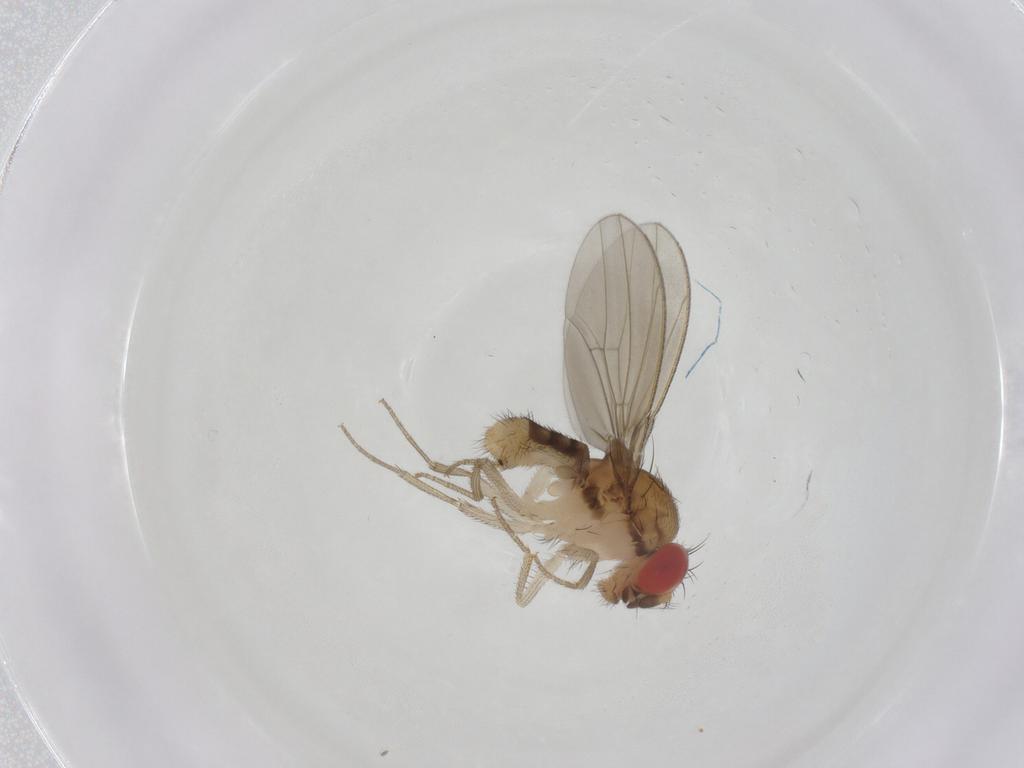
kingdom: Animalia
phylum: Arthropoda
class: Insecta
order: Diptera
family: Drosophilidae
